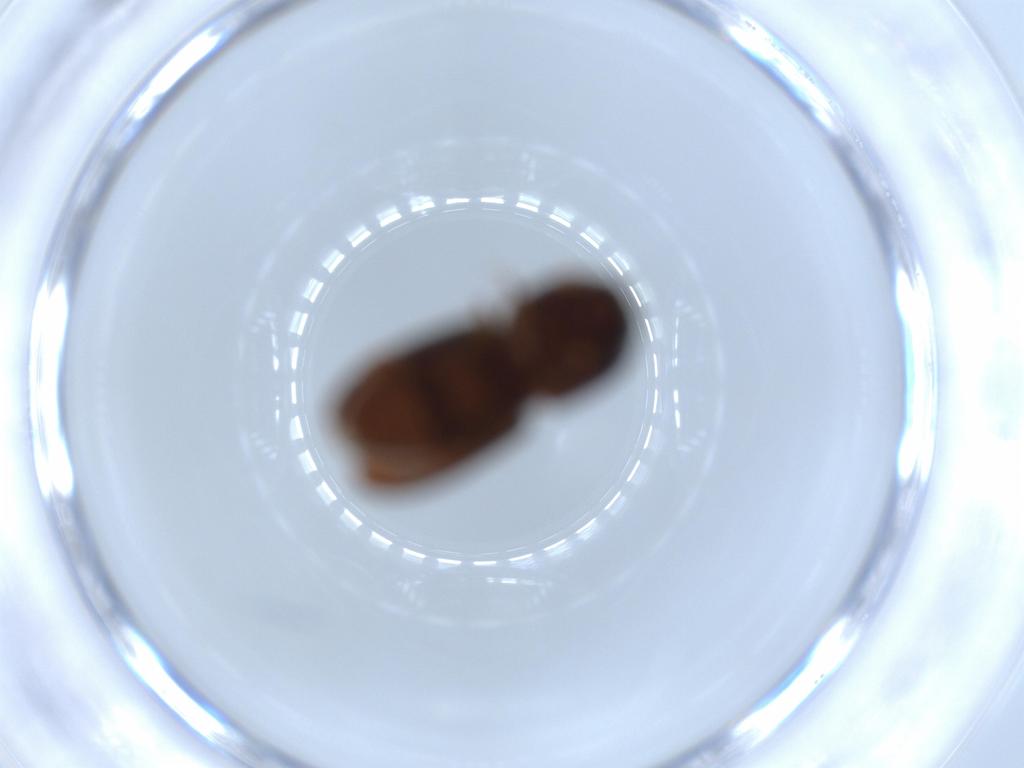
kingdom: Animalia
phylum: Arthropoda
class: Insecta
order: Coleoptera
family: Curculionidae
